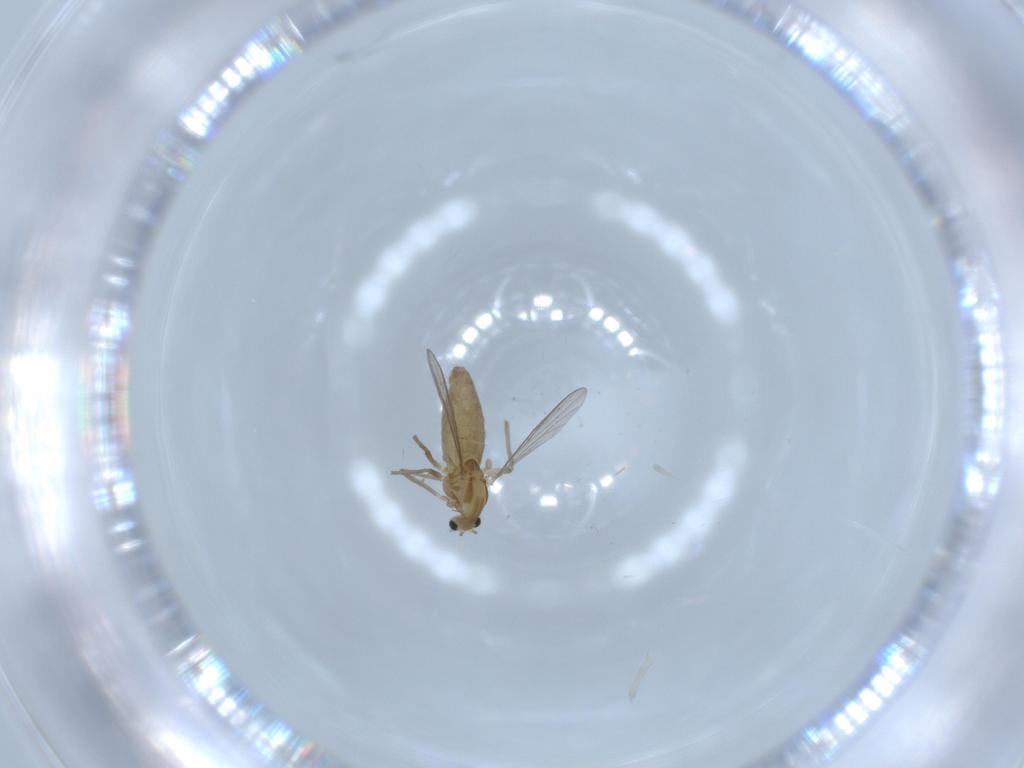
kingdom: Animalia
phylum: Arthropoda
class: Insecta
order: Diptera
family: Chironomidae
